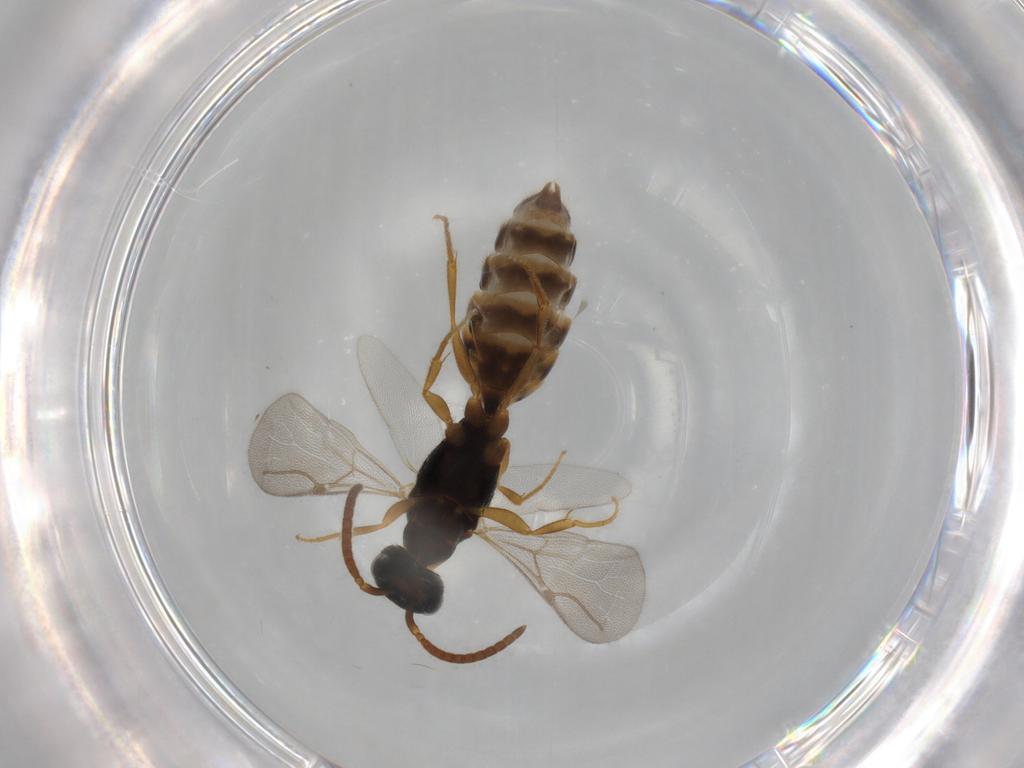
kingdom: Animalia
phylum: Arthropoda
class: Insecta
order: Hymenoptera
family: Bethylidae
